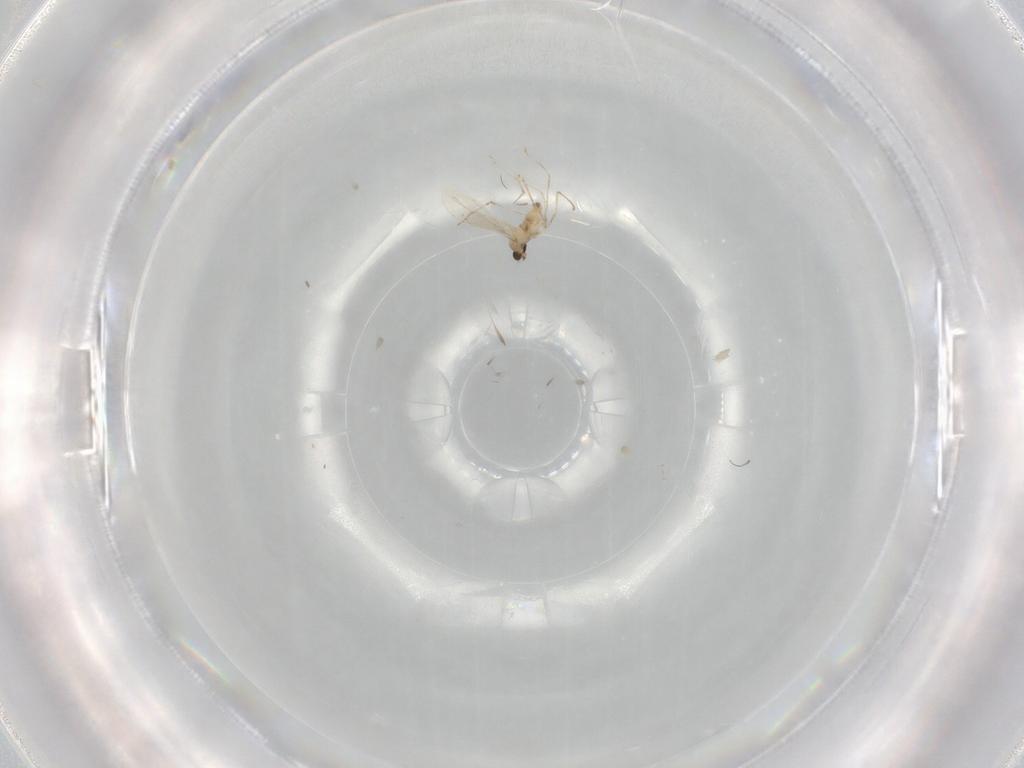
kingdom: Animalia
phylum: Arthropoda
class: Insecta
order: Diptera
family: Cecidomyiidae
